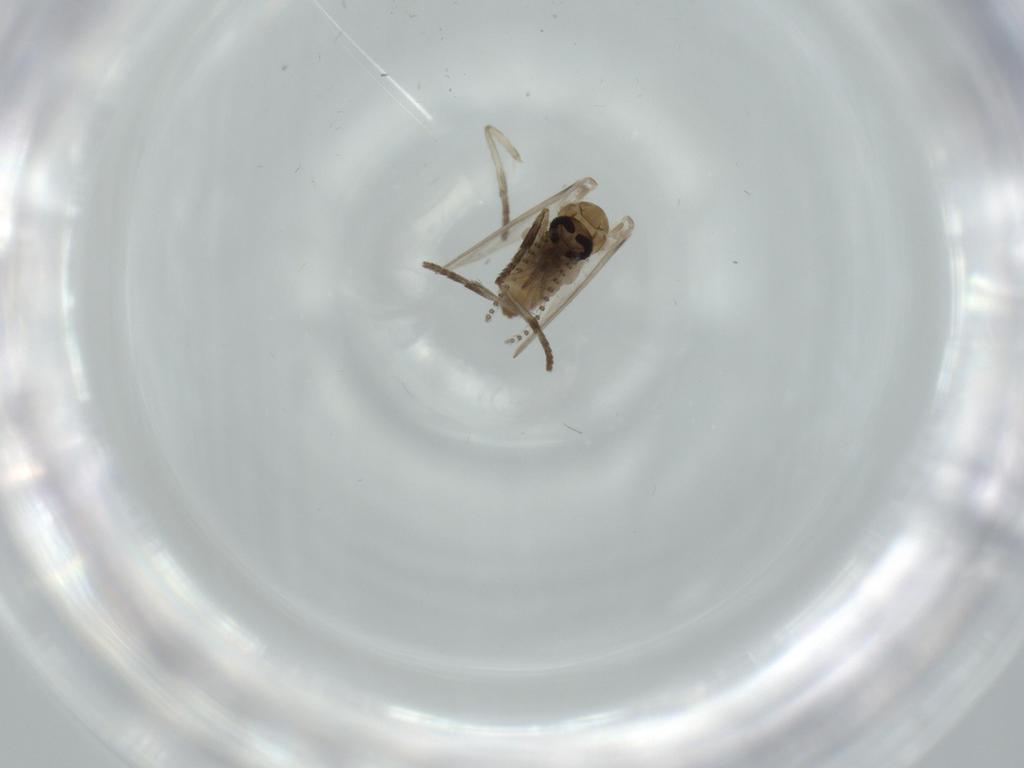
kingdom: Animalia
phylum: Arthropoda
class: Insecta
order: Diptera
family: Psychodidae
